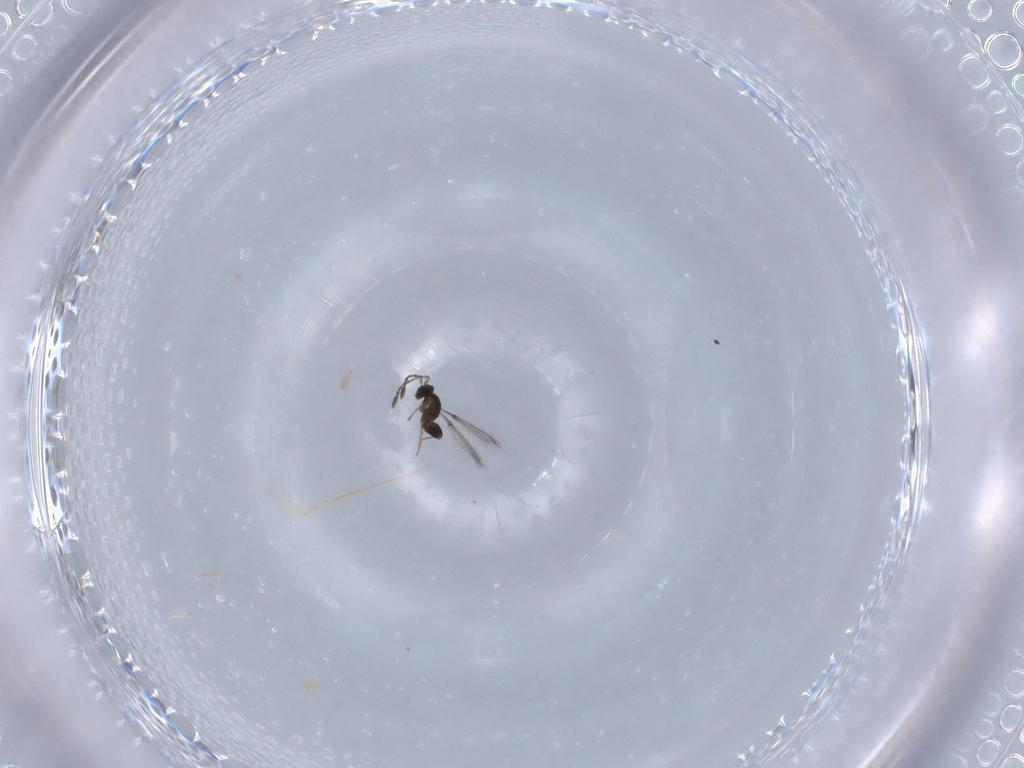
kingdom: Animalia
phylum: Arthropoda
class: Insecta
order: Hymenoptera
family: Mymaridae
